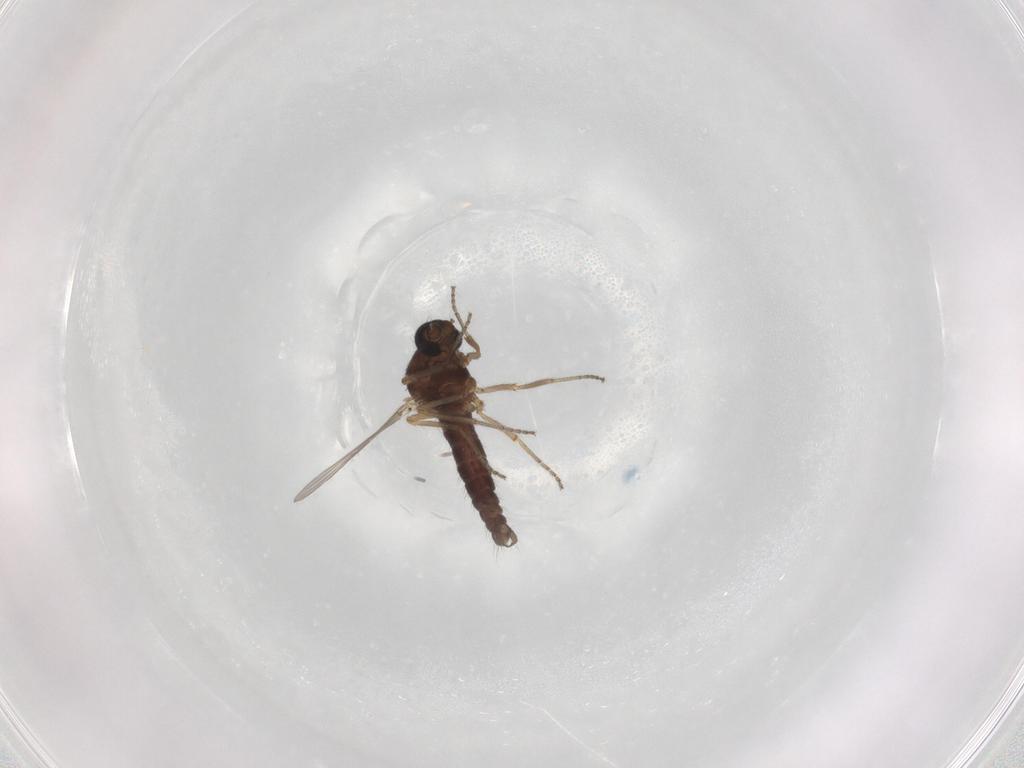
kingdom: Animalia
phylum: Arthropoda
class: Insecta
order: Diptera
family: Ceratopogonidae
